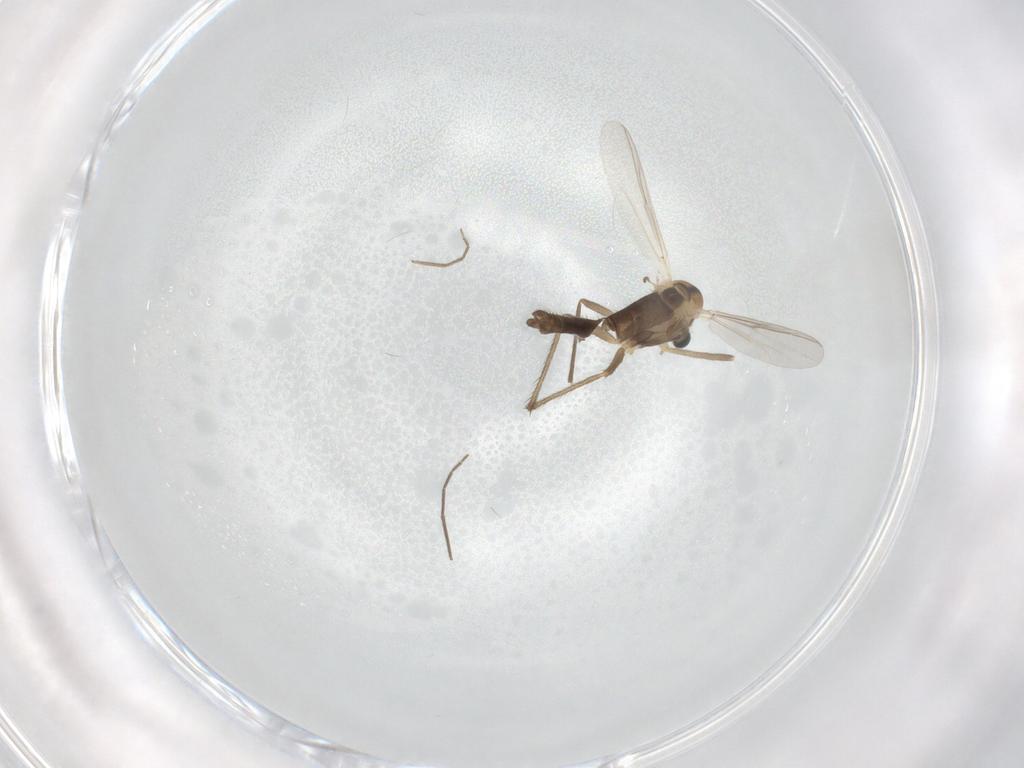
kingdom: Animalia
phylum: Arthropoda
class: Insecta
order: Diptera
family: Chironomidae
